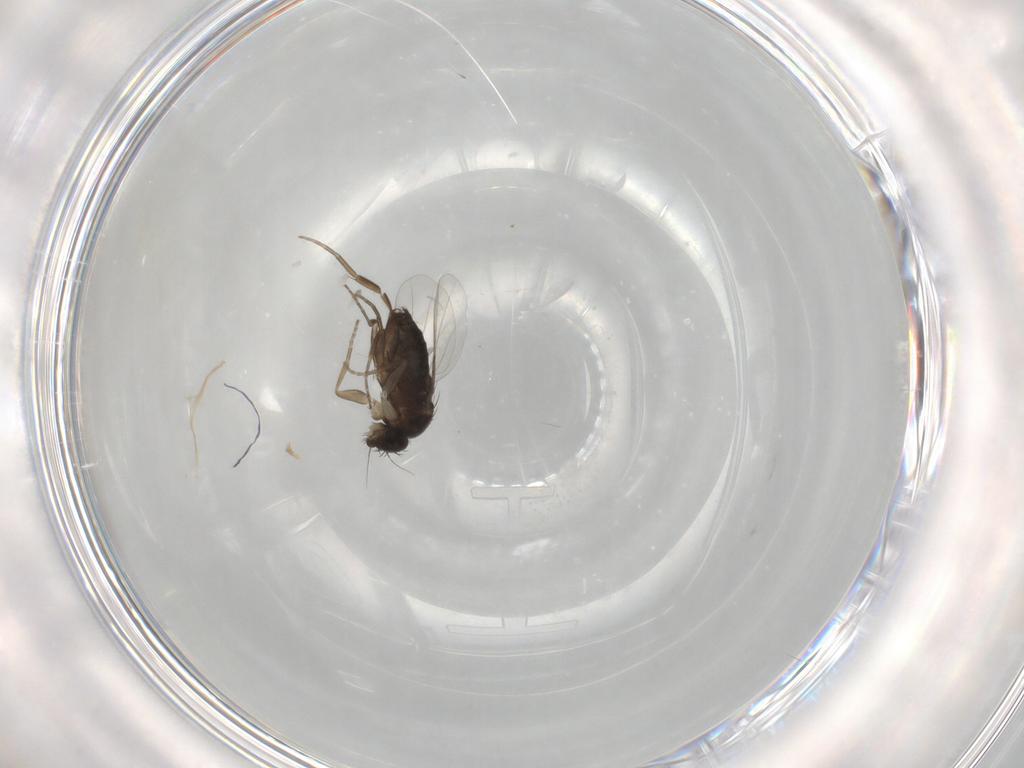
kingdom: Animalia
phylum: Arthropoda
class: Insecta
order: Diptera
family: Phoridae
